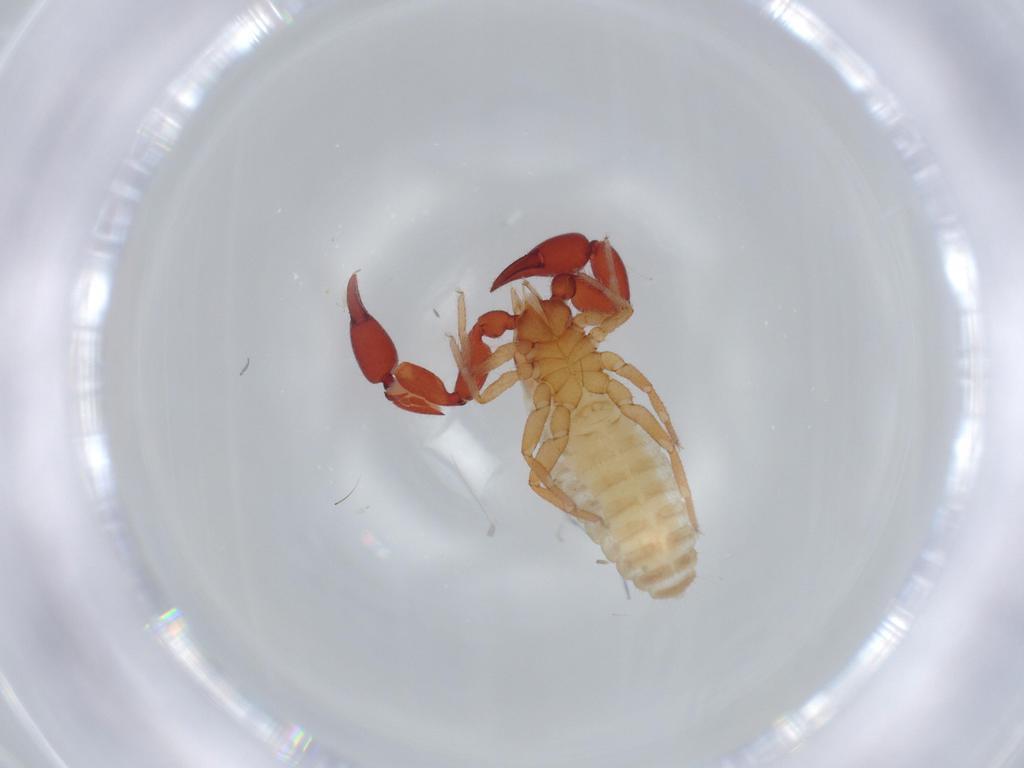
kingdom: Animalia
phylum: Arthropoda
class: Arachnida
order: Pseudoscorpiones
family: Chernetidae
